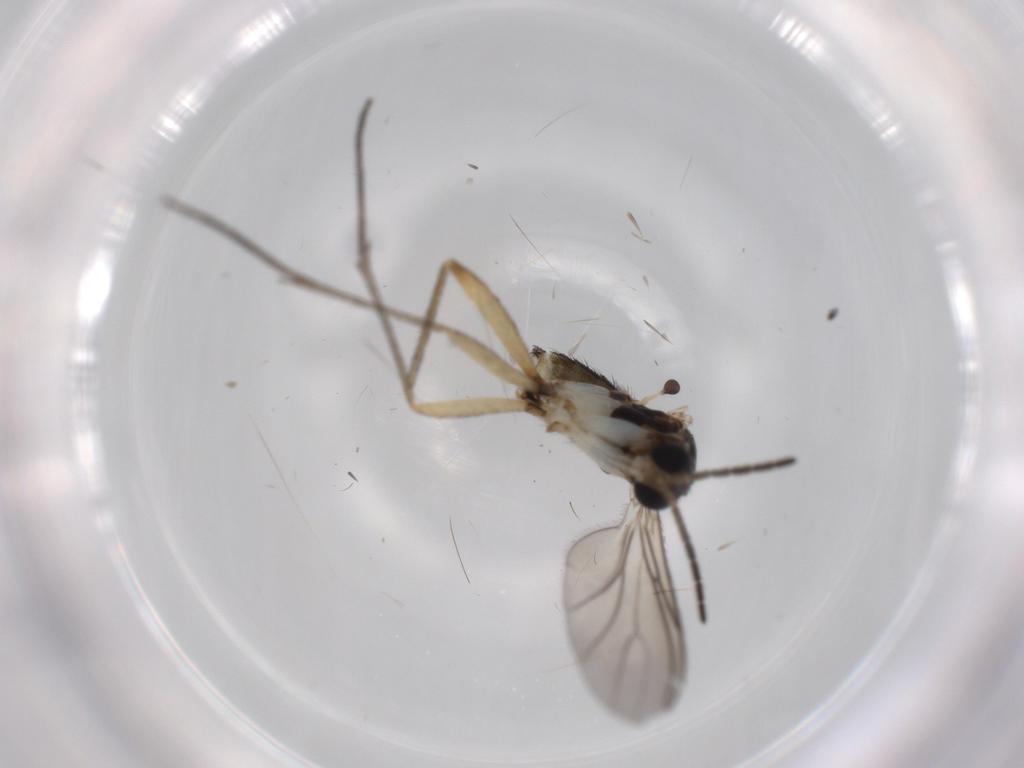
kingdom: Animalia
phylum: Arthropoda
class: Insecta
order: Diptera
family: Sciaridae
